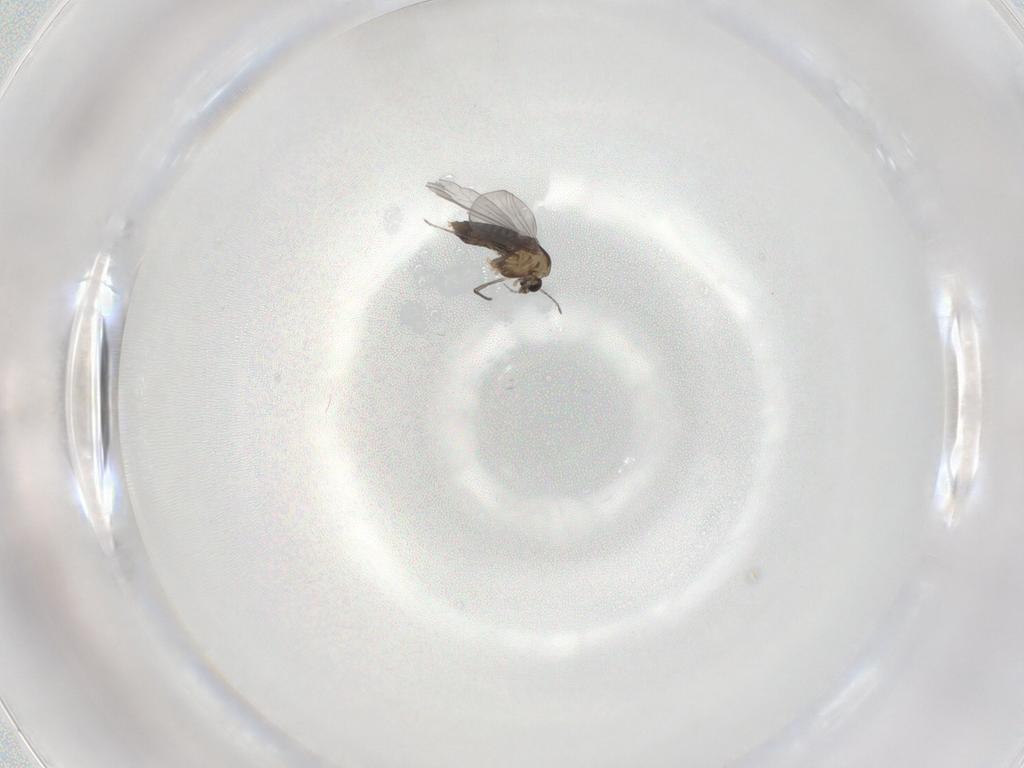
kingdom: Animalia
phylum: Arthropoda
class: Insecta
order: Diptera
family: Chironomidae
